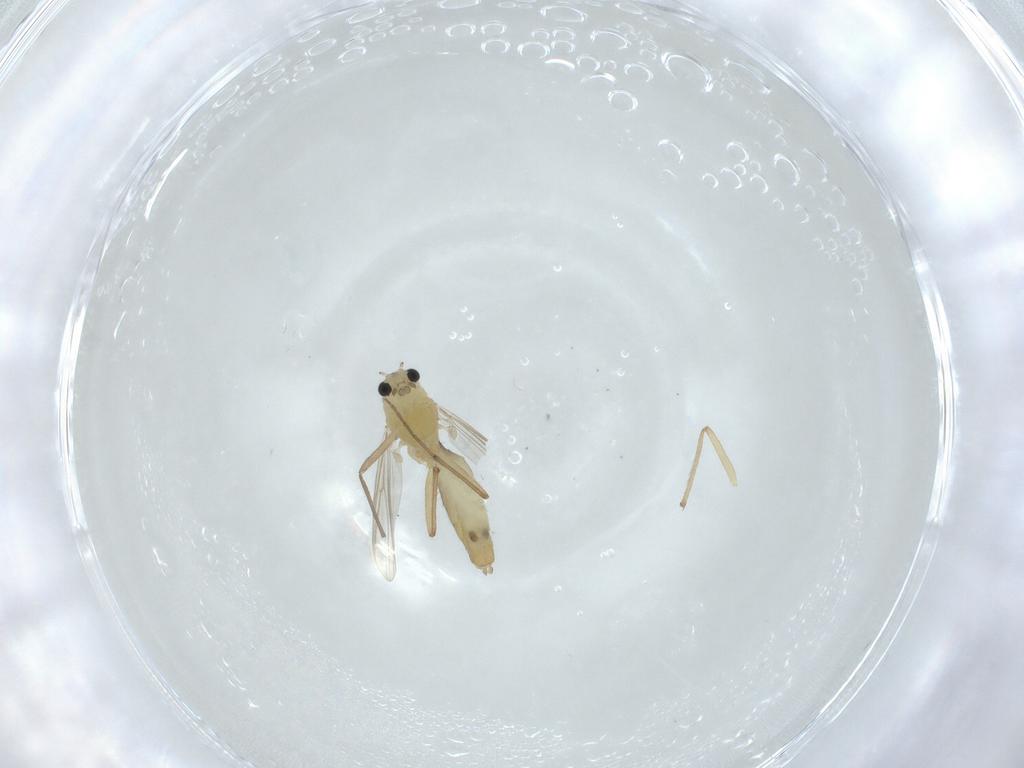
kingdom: Animalia
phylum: Arthropoda
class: Insecta
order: Diptera
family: Chironomidae
